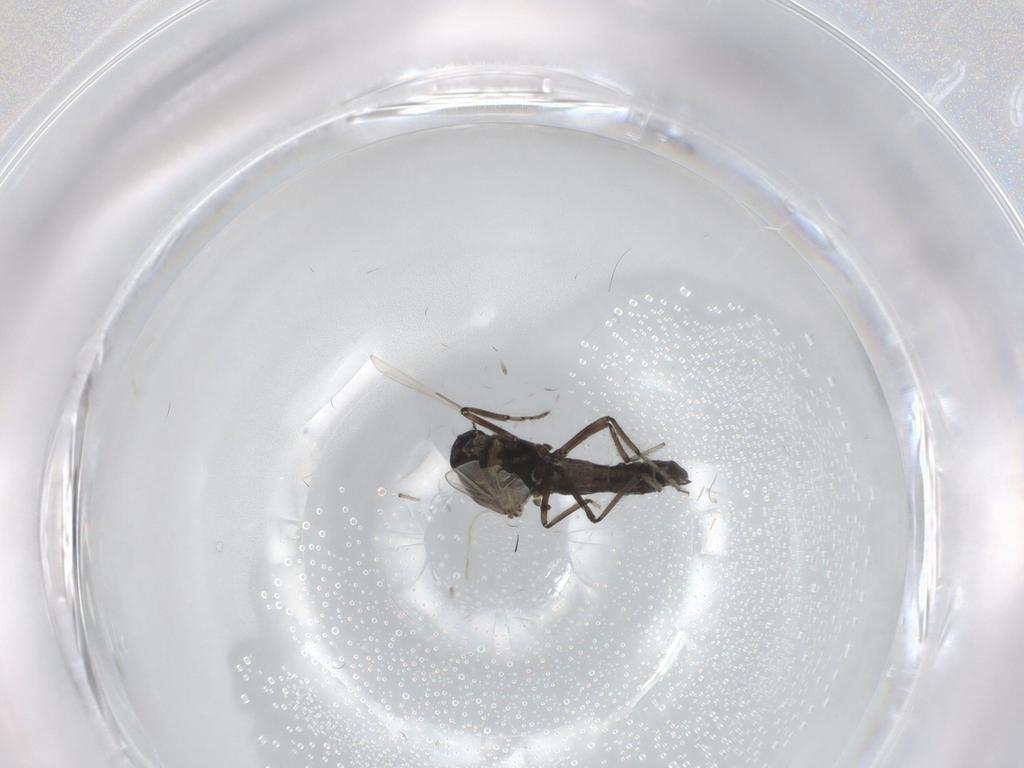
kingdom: Animalia
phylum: Arthropoda
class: Insecta
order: Diptera
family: Ceratopogonidae
